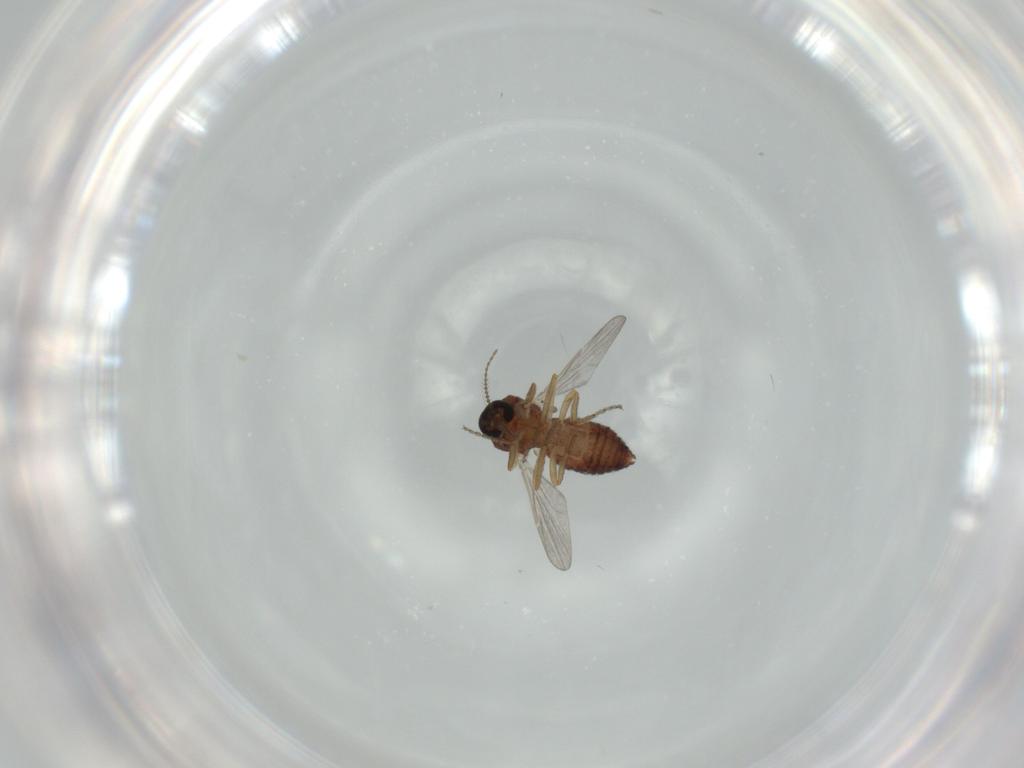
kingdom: Animalia
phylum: Arthropoda
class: Insecta
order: Diptera
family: Ceratopogonidae
